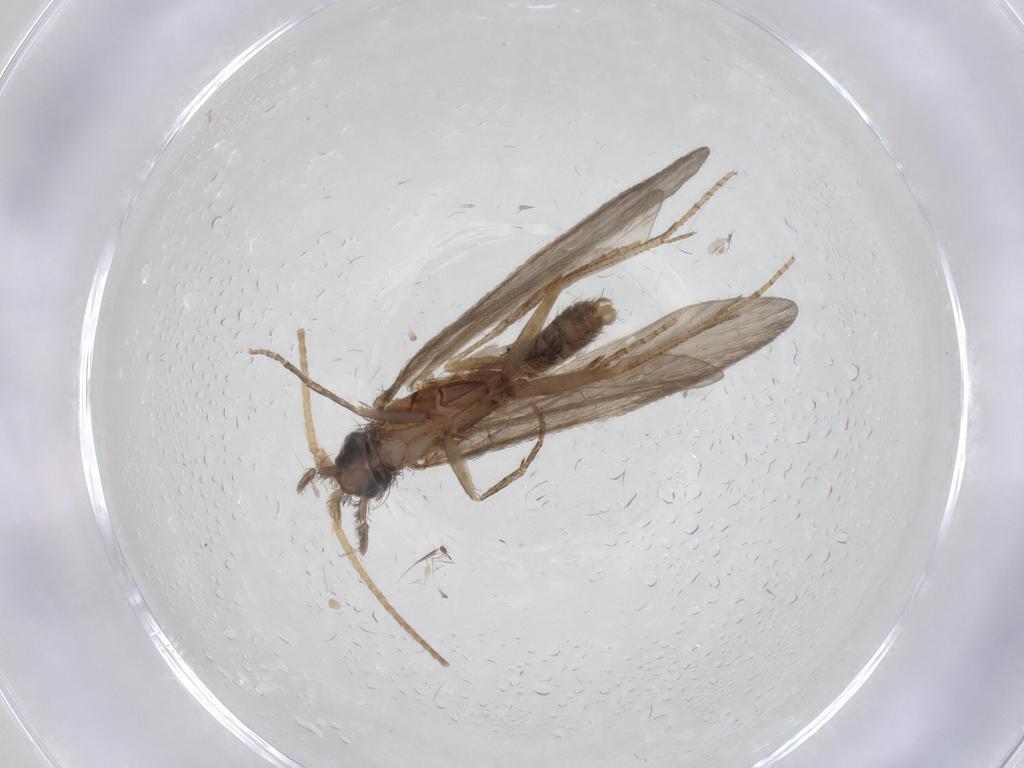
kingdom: Animalia
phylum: Arthropoda
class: Insecta
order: Trichoptera
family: Helicopsychidae
